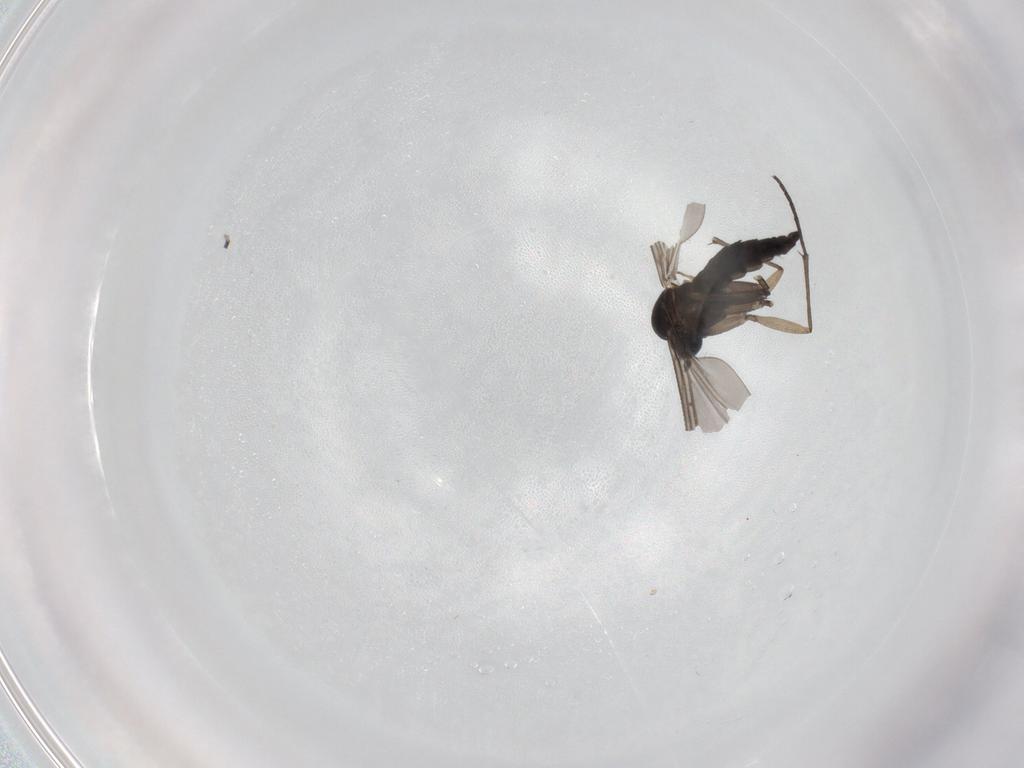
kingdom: Animalia
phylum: Arthropoda
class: Insecta
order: Diptera
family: Sciaridae
